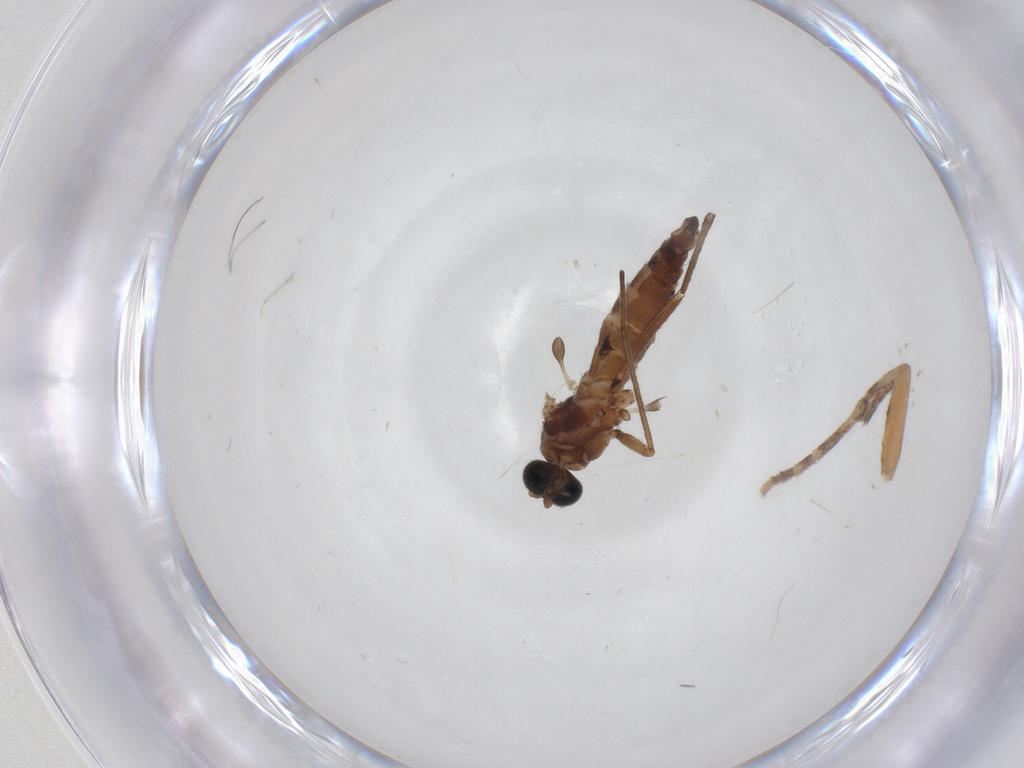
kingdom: Animalia
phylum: Arthropoda
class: Insecta
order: Diptera
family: Sciaridae
